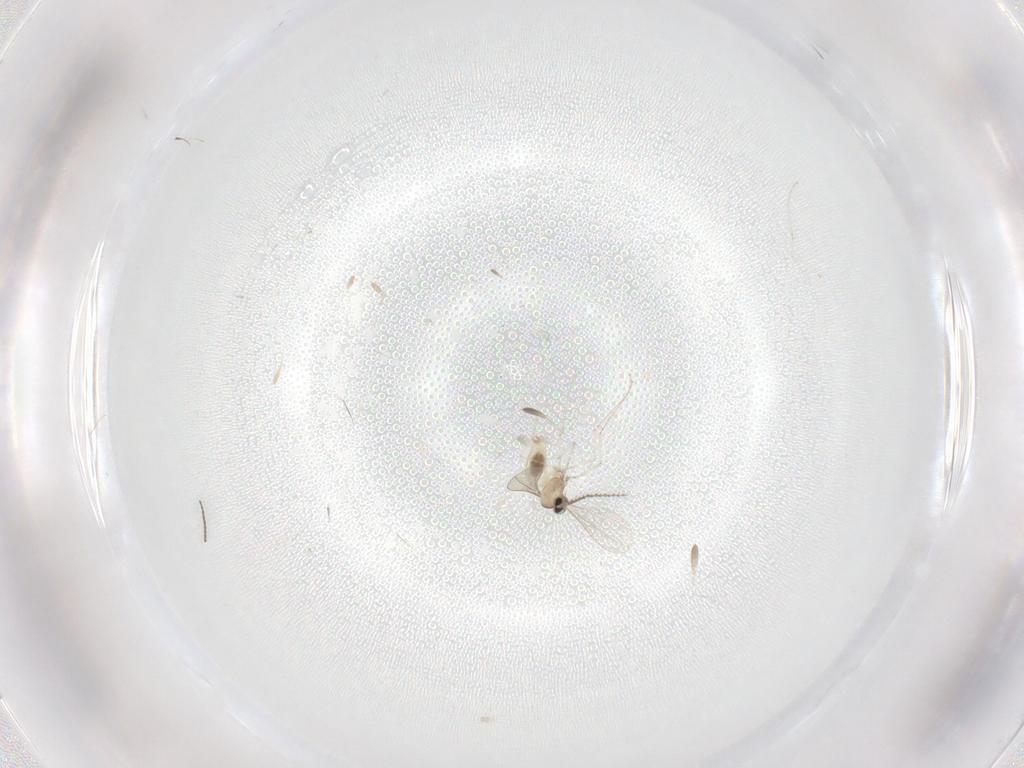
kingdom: Animalia
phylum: Arthropoda
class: Insecta
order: Diptera
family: Cecidomyiidae
